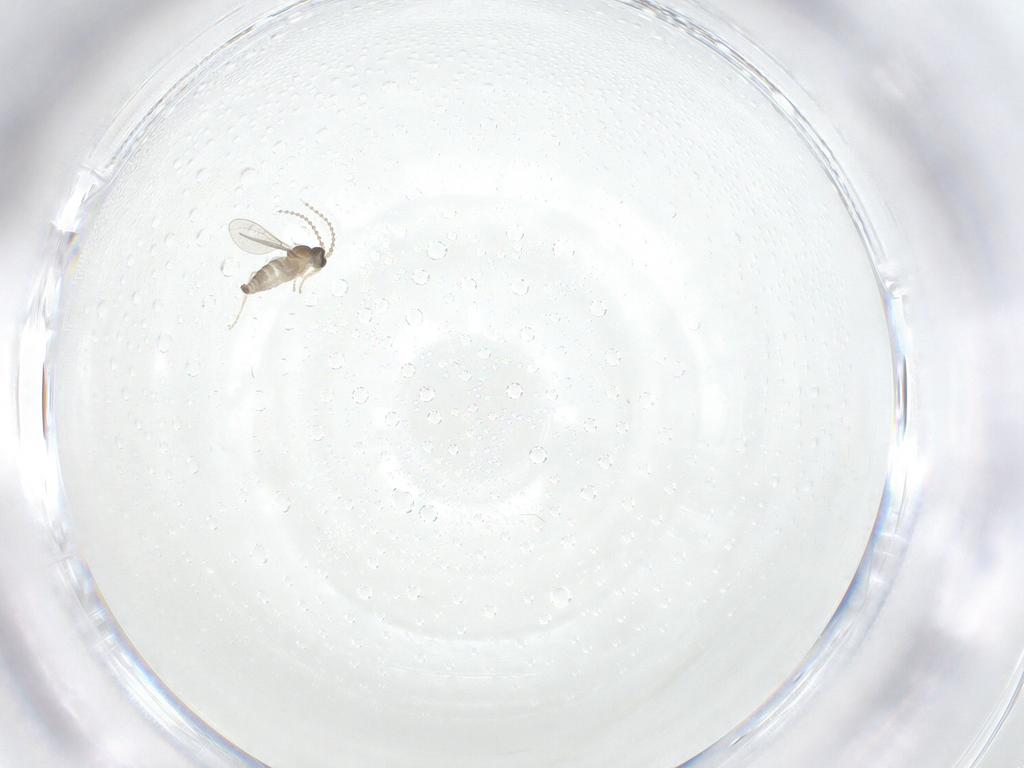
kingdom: Animalia
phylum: Arthropoda
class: Insecta
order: Diptera
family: Cecidomyiidae
